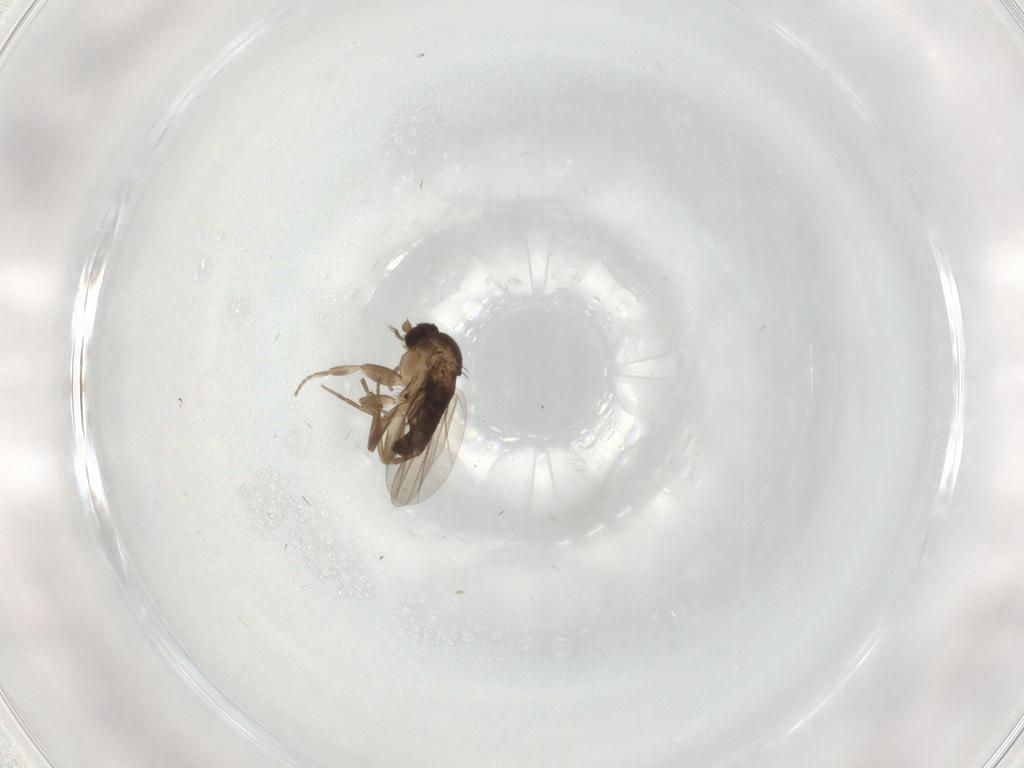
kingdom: Animalia
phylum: Arthropoda
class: Insecta
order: Diptera
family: Phoridae
